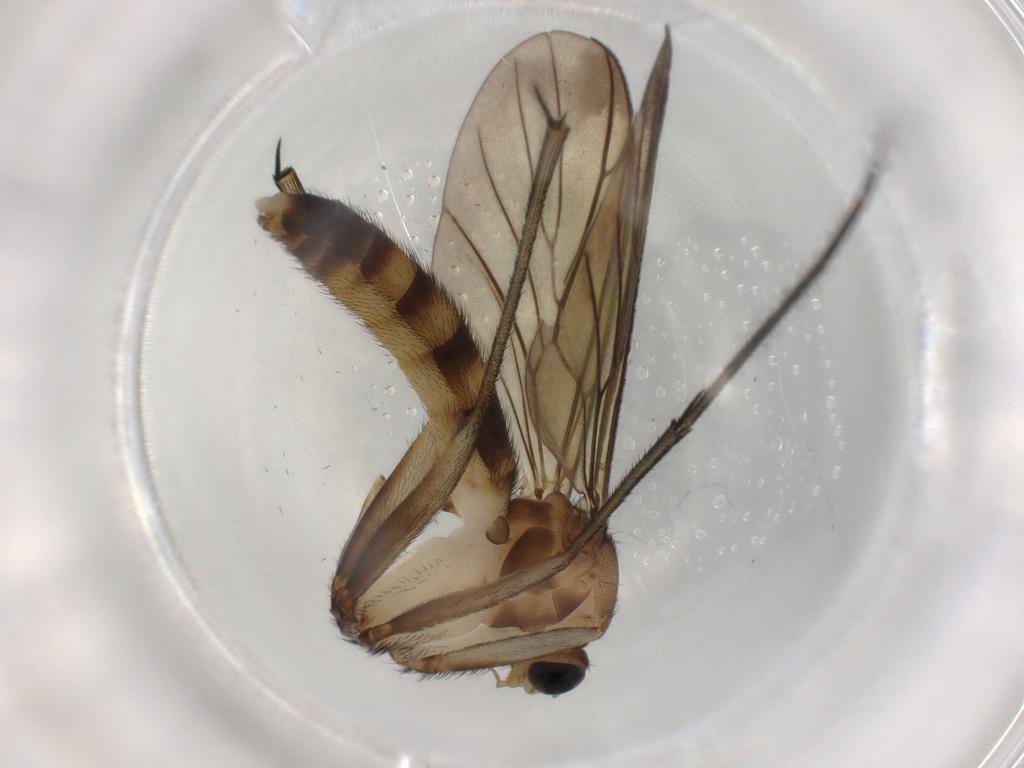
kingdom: Animalia
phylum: Arthropoda
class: Insecta
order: Diptera
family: Keroplatidae
